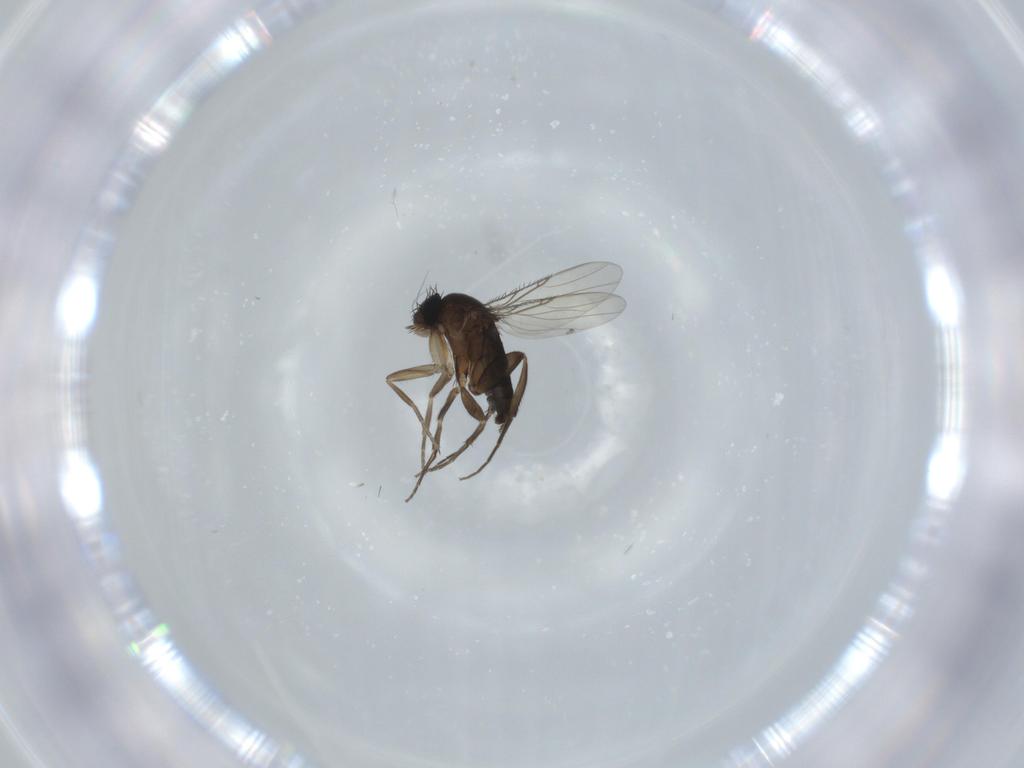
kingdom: Animalia
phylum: Arthropoda
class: Insecta
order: Diptera
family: Phoridae
